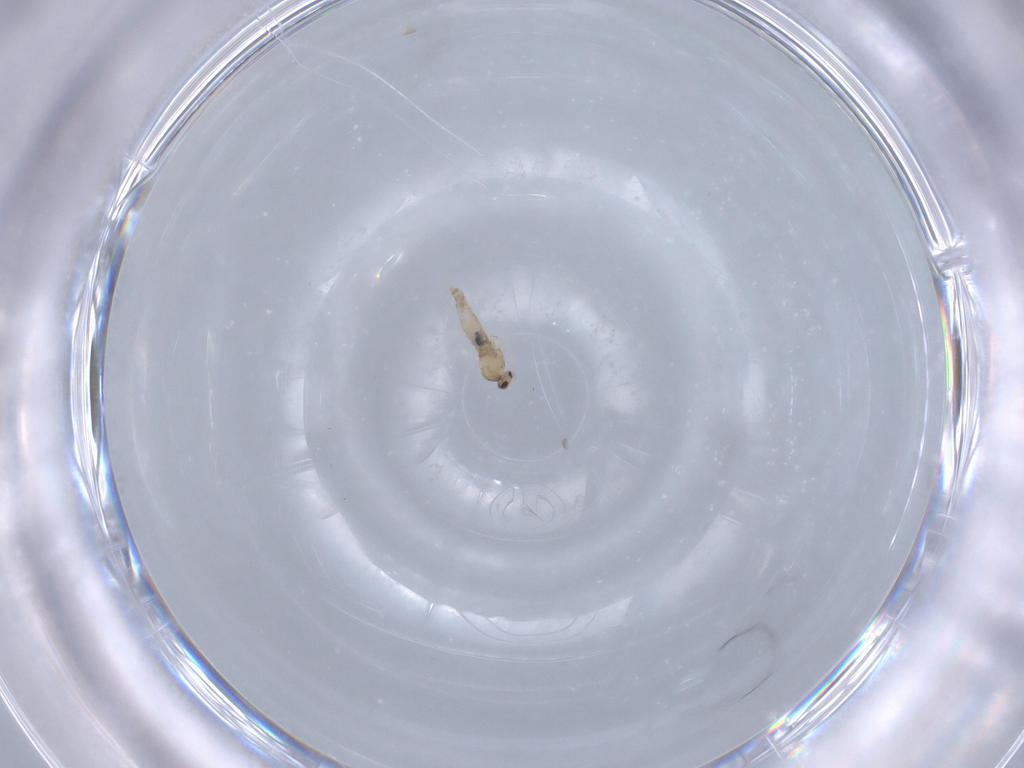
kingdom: Animalia
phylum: Arthropoda
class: Insecta
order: Diptera
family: Cecidomyiidae
